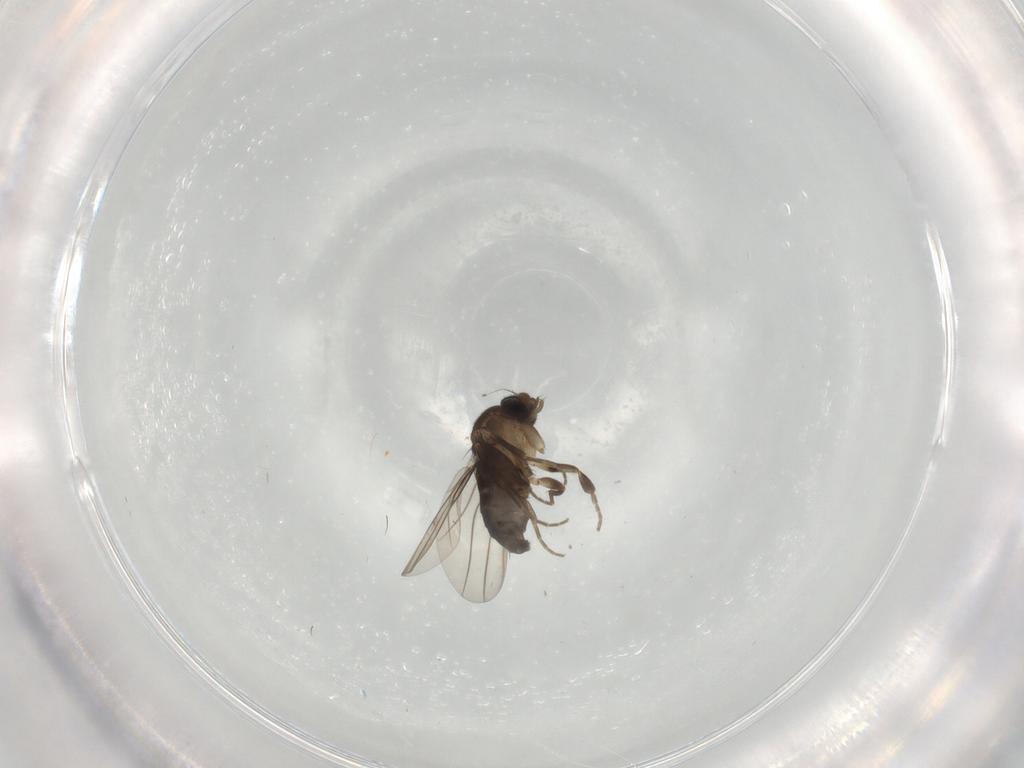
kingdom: Animalia
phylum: Arthropoda
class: Insecta
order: Diptera
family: Phoridae
